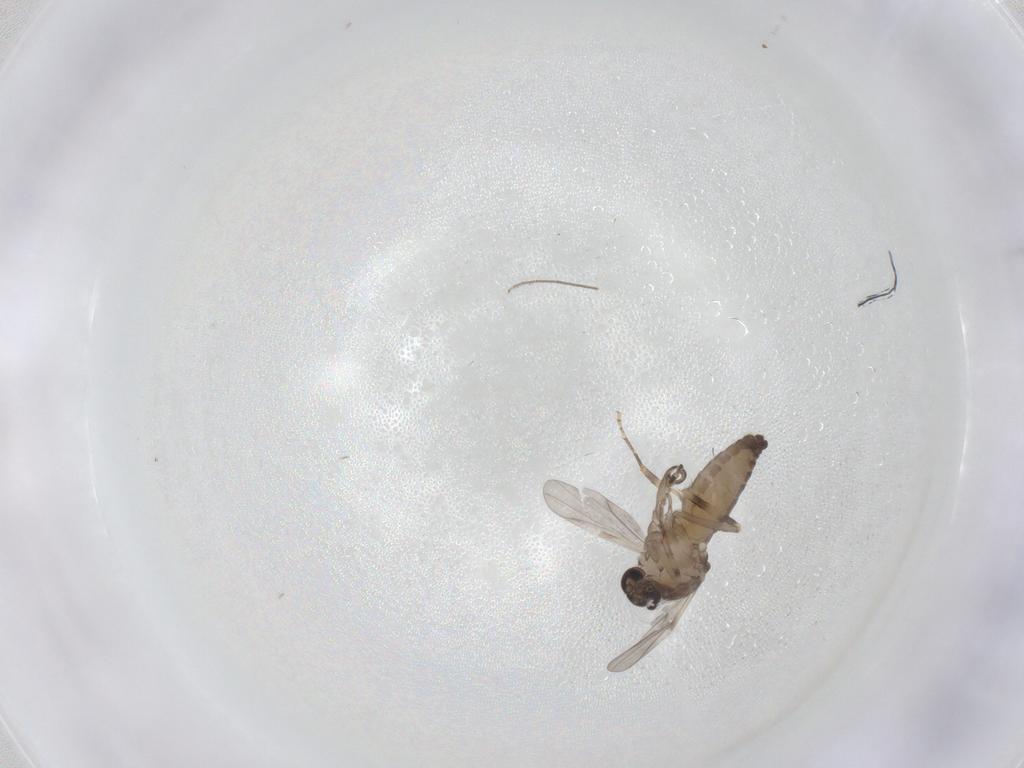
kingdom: Animalia
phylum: Arthropoda
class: Insecta
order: Diptera
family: Ceratopogonidae
